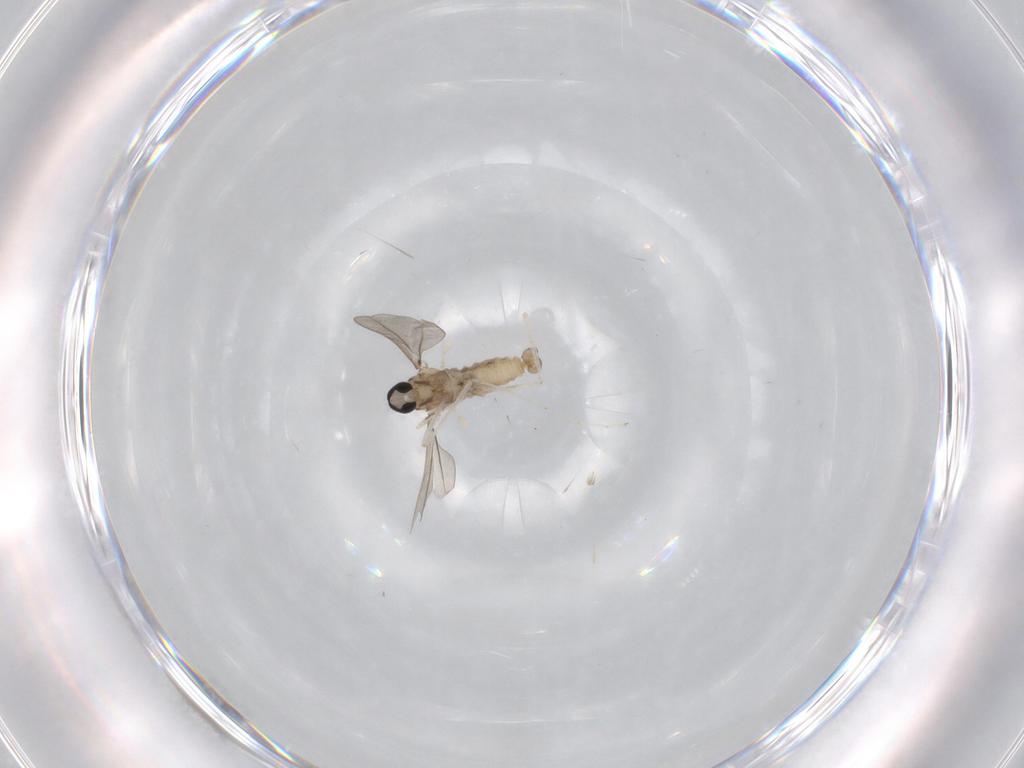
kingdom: Animalia
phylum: Arthropoda
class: Insecta
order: Diptera
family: Cecidomyiidae
